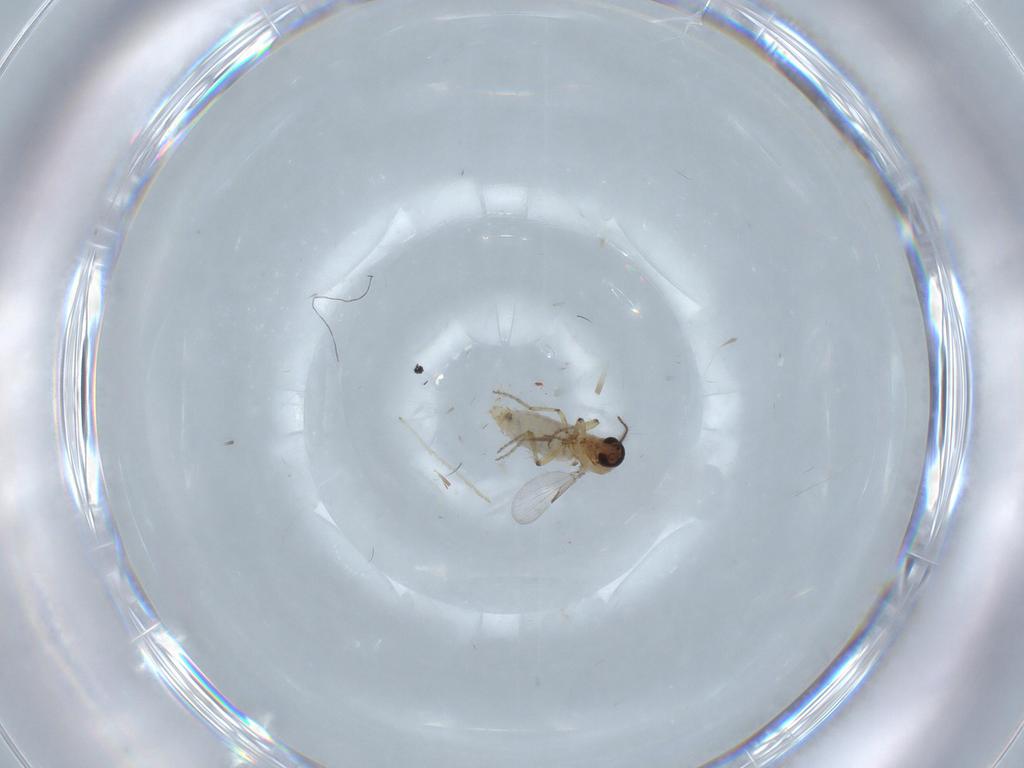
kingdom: Animalia
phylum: Arthropoda
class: Insecta
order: Diptera
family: Ceratopogonidae
